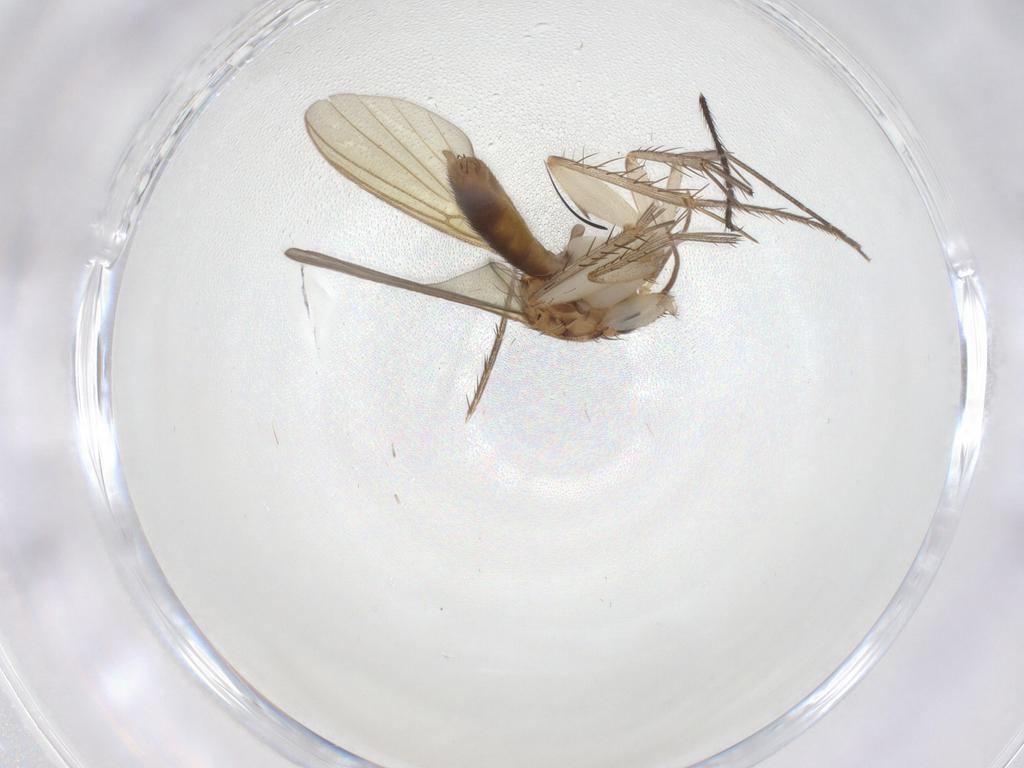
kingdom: Animalia
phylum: Arthropoda
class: Insecta
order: Diptera
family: Mycetophilidae
